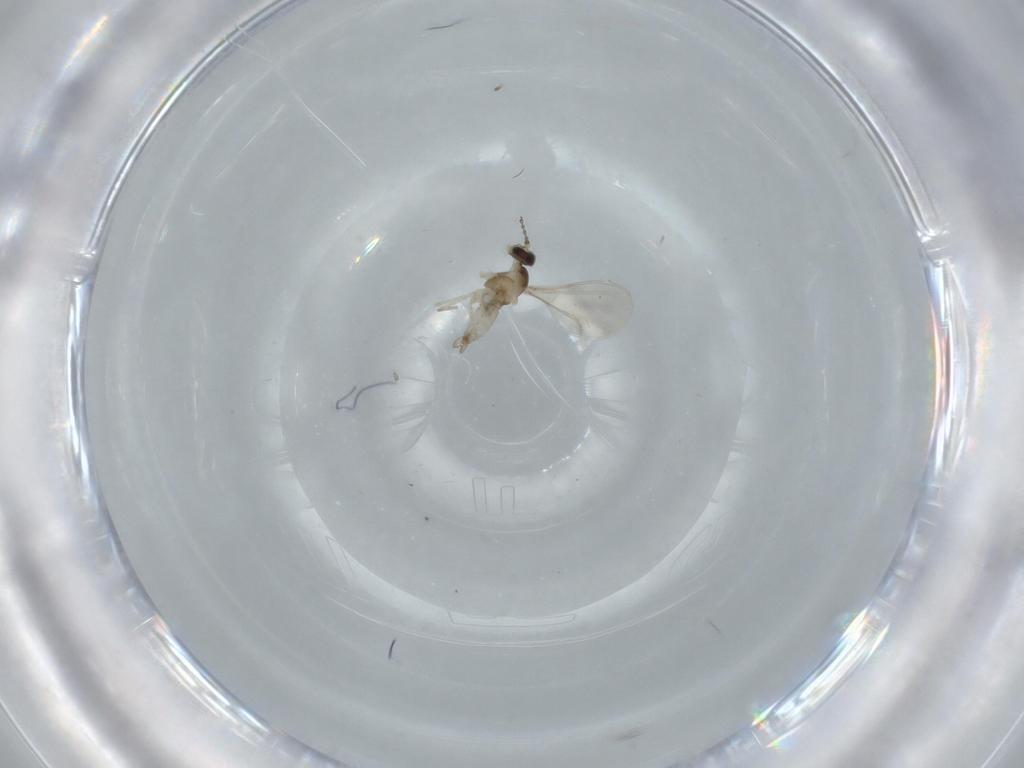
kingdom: Animalia
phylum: Arthropoda
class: Insecta
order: Diptera
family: Cecidomyiidae
